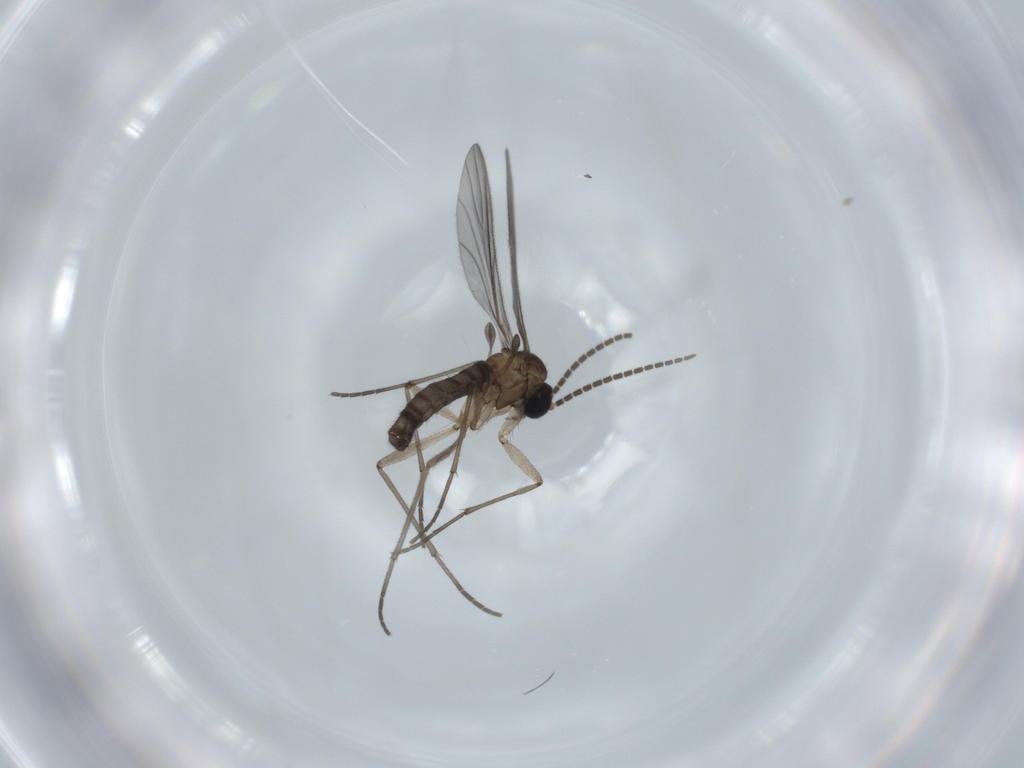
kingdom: Animalia
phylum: Arthropoda
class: Insecta
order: Diptera
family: Sciaridae
